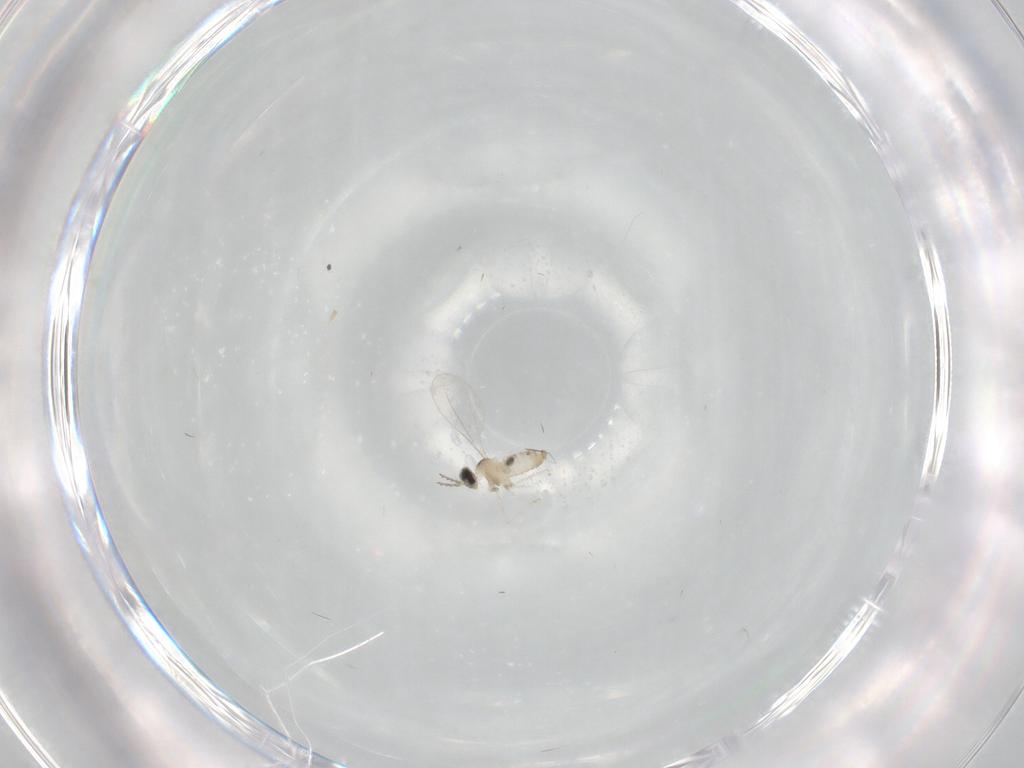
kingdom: Animalia
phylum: Arthropoda
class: Insecta
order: Diptera
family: Cecidomyiidae
